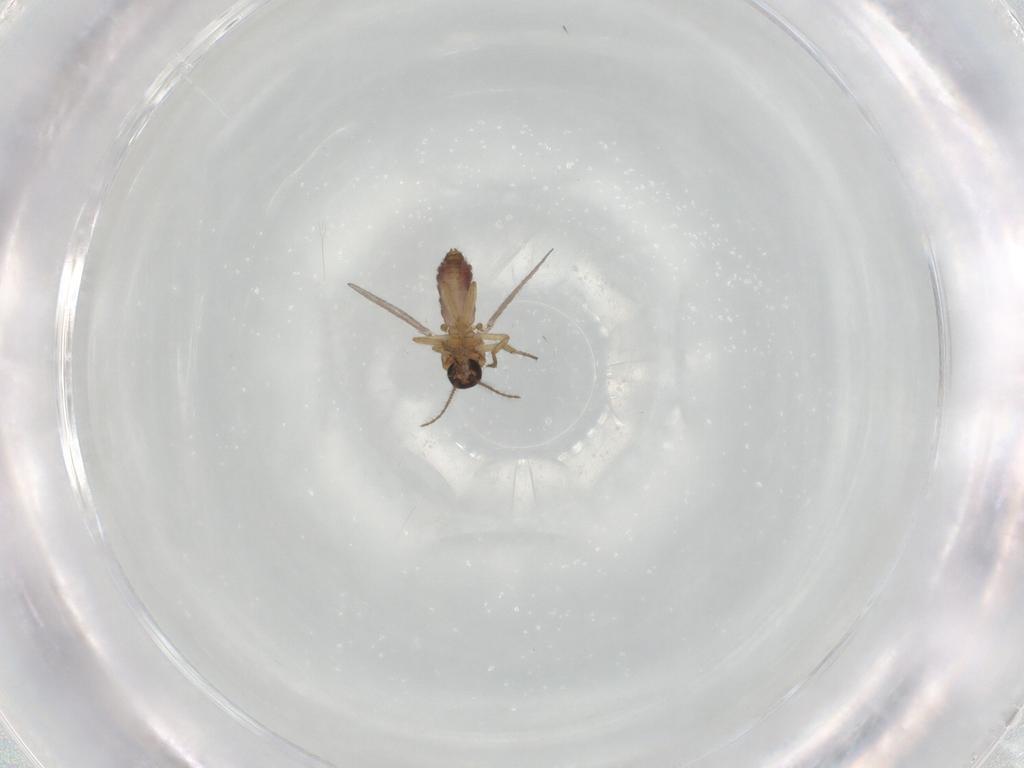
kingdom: Animalia
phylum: Arthropoda
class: Insecta
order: Diptera
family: Ceratopogonidae
